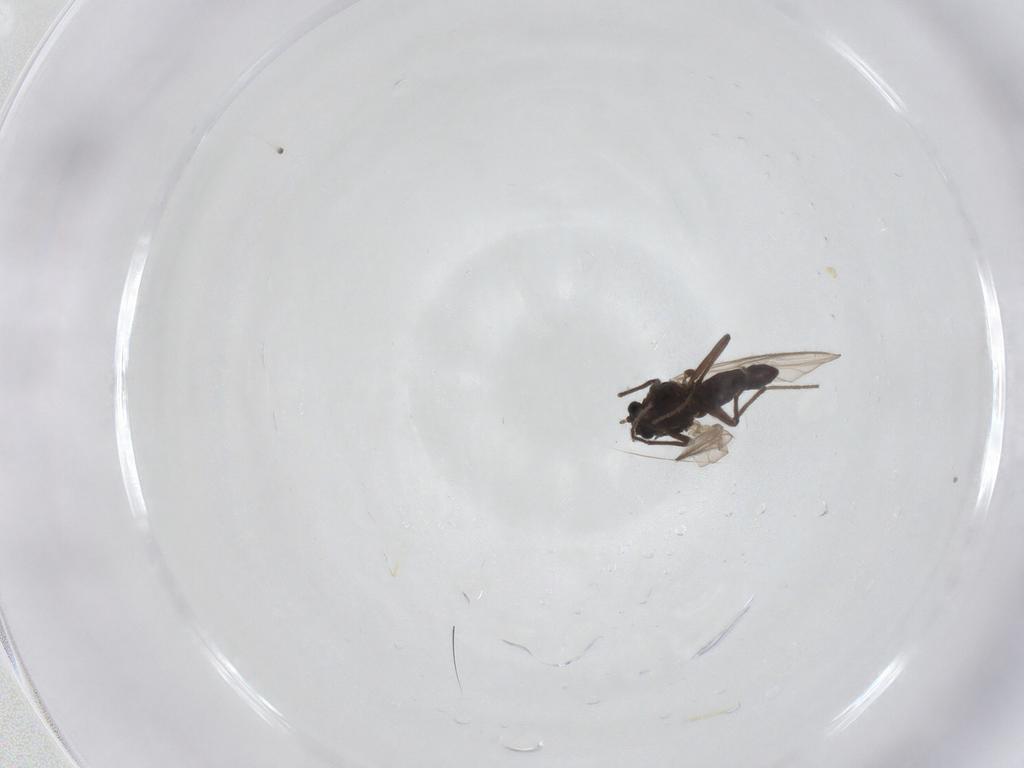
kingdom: Animalia
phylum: Arthropoda
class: Insecta
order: Diptera
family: Chironomidae
